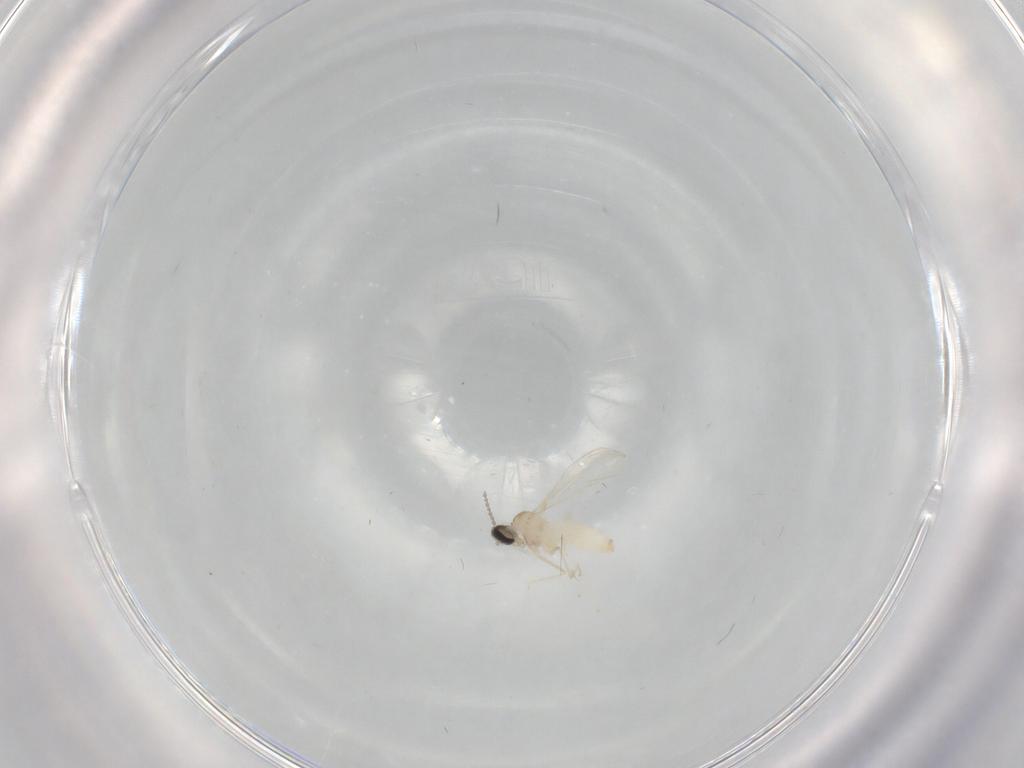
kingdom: Animalia
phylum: Arthropoda
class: Insecta
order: Diptera
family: Cecidomyiidae
